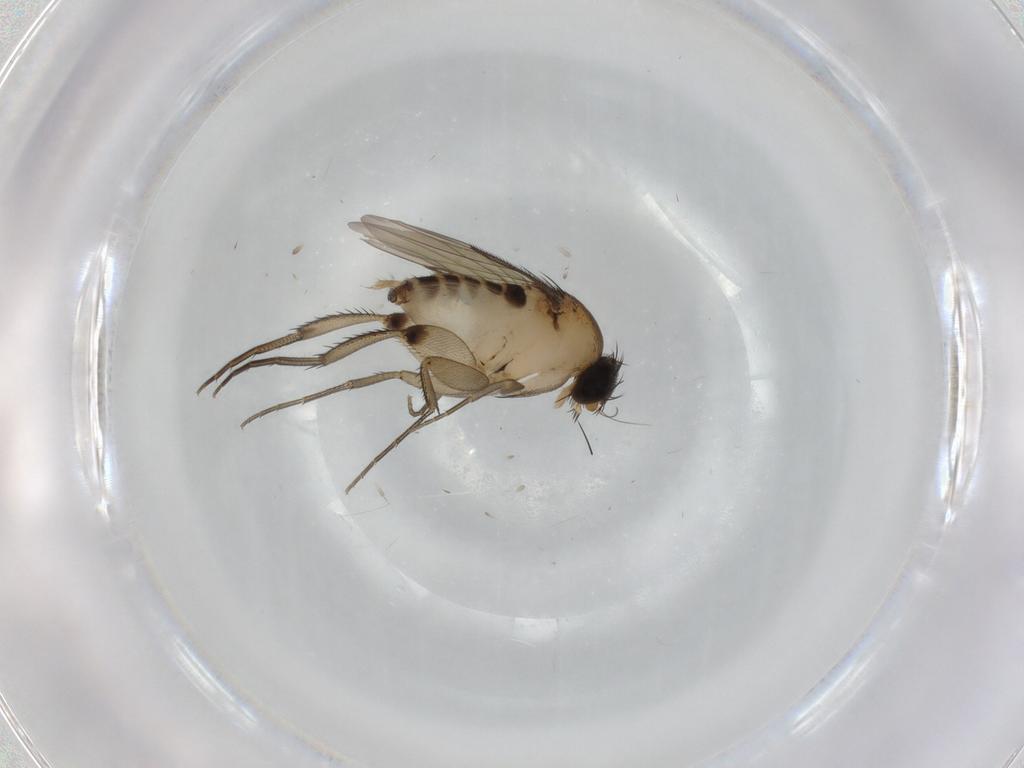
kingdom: Animalia
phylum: Arthropoda
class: Insecta
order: Diptera
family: Phoridae
